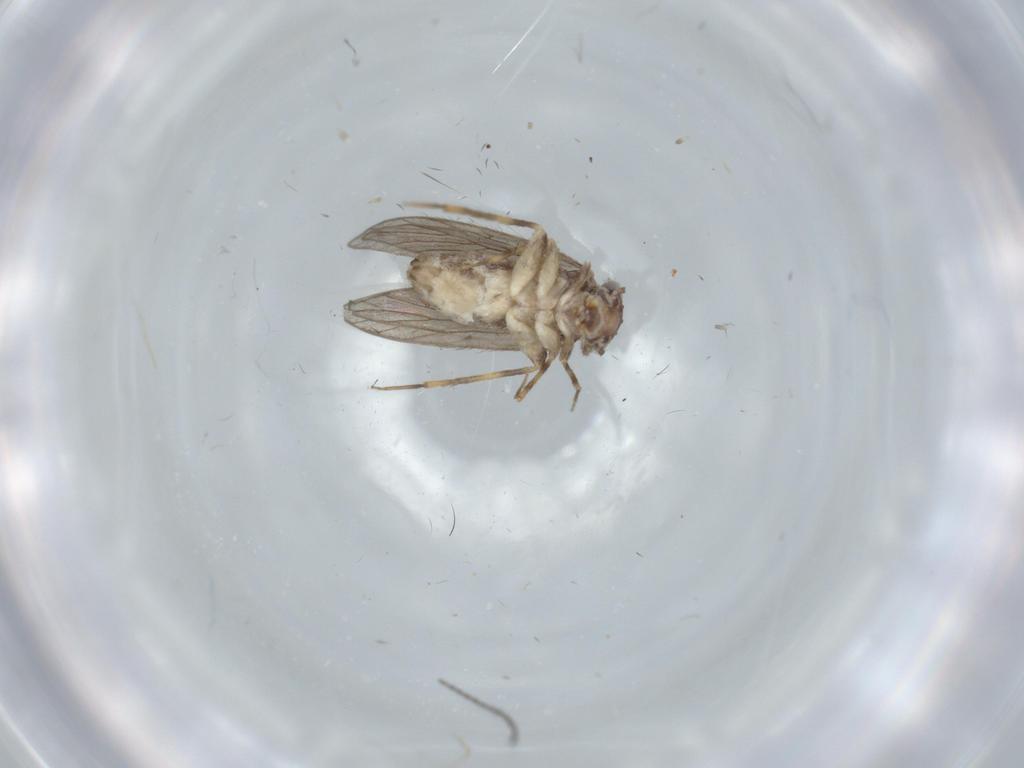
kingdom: Animalia
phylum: Arthropoda
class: Insecta
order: Psocodea
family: Lepidopsocidae
